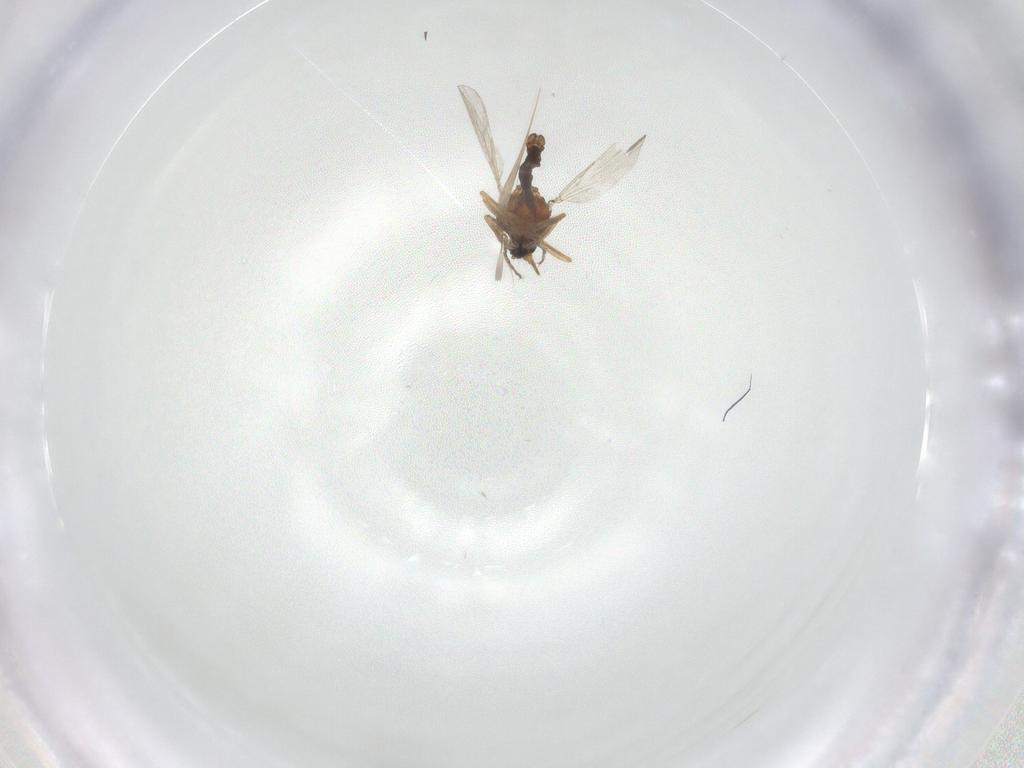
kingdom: Animalia
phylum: Arthropoda
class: Insecta
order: Diptera
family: Ceratopogonidae
